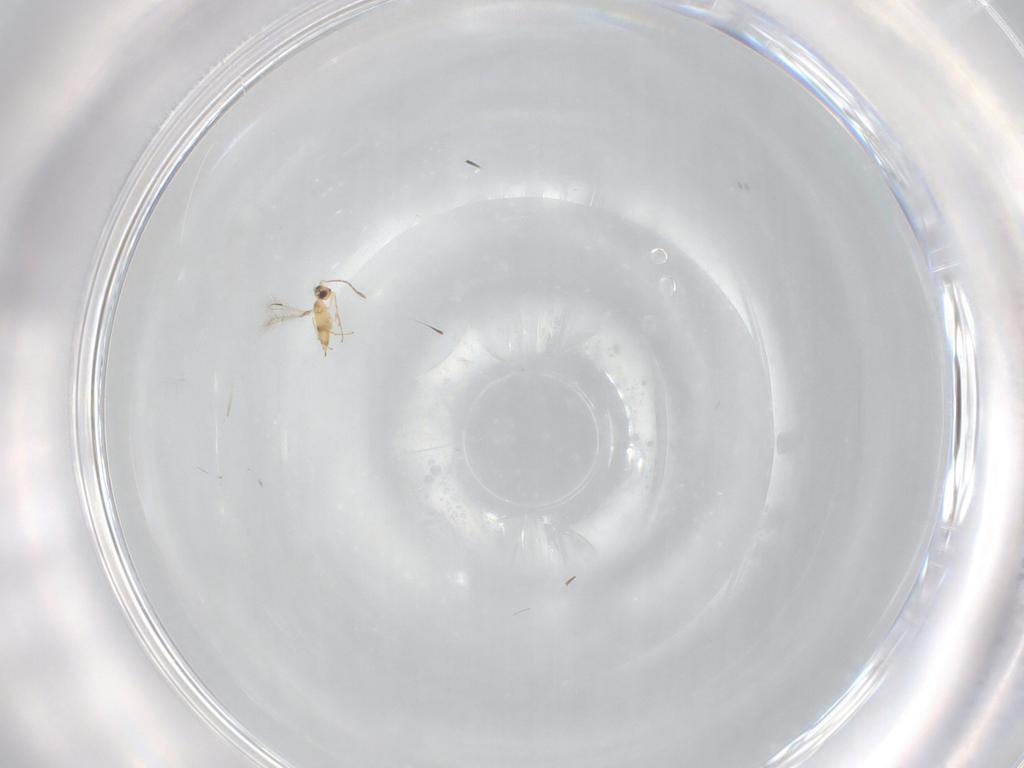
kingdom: Animalia
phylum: Arthropoda
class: Insecta
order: Hymenoptera
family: Mymaridae
